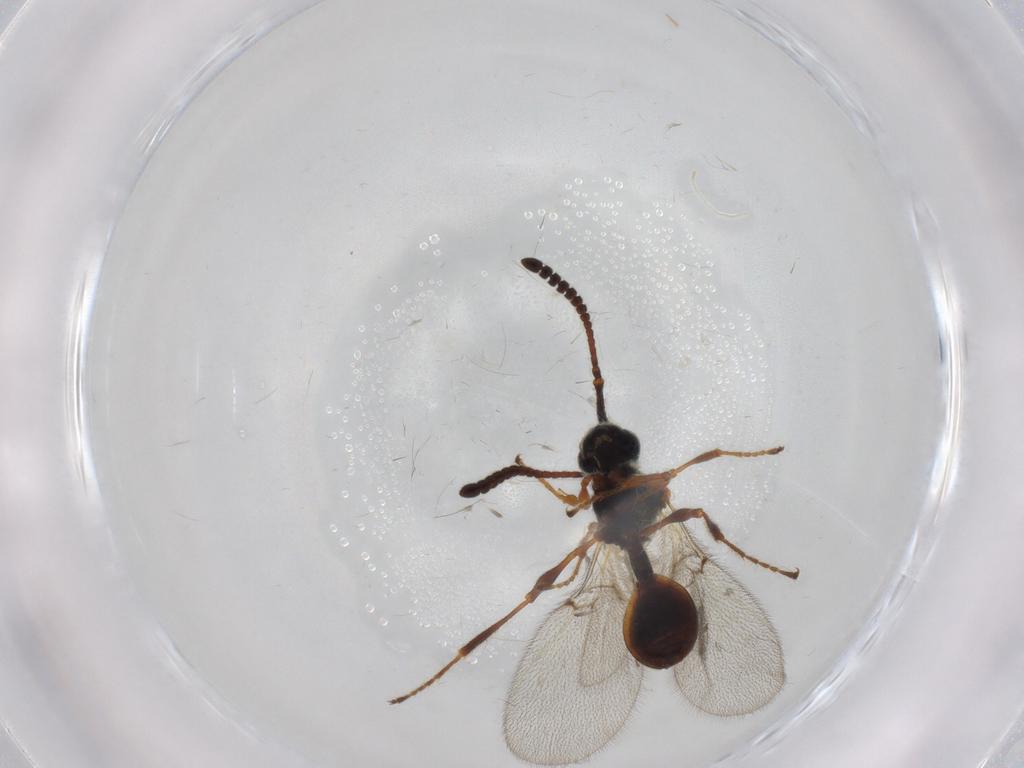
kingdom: Animalia
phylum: Arthropoda
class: Insecta
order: Hymenoptera
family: Diapriidae
